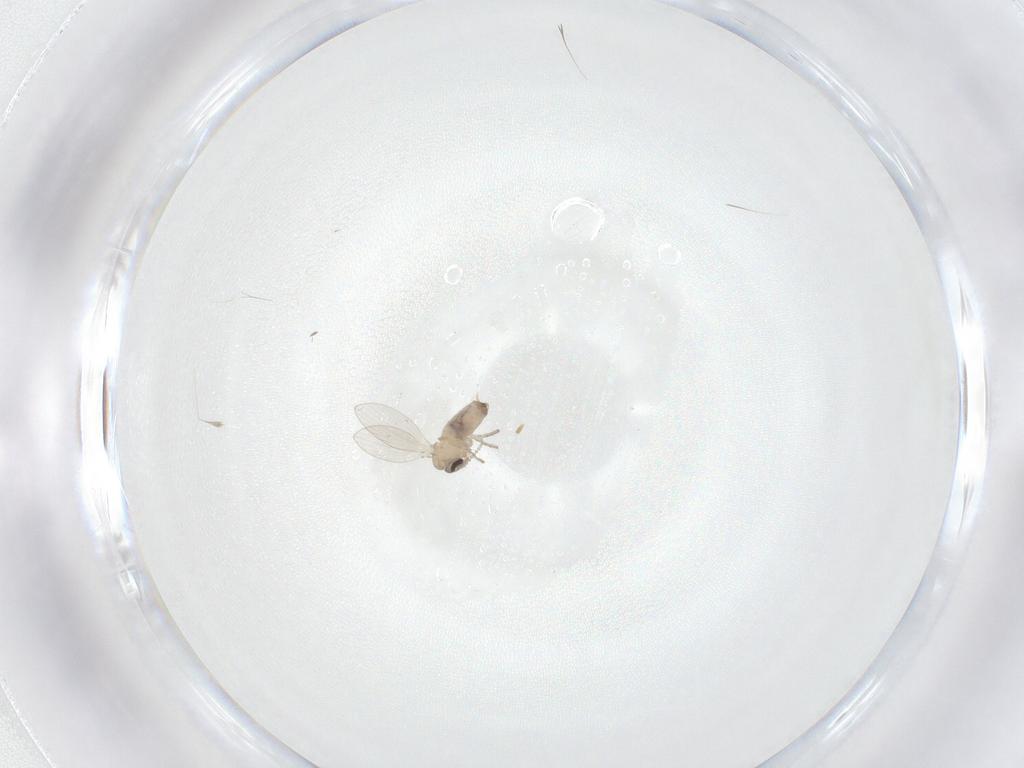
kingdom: Animalia
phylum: Arthropoda
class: Insecta
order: Diptera
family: Psychodidae
